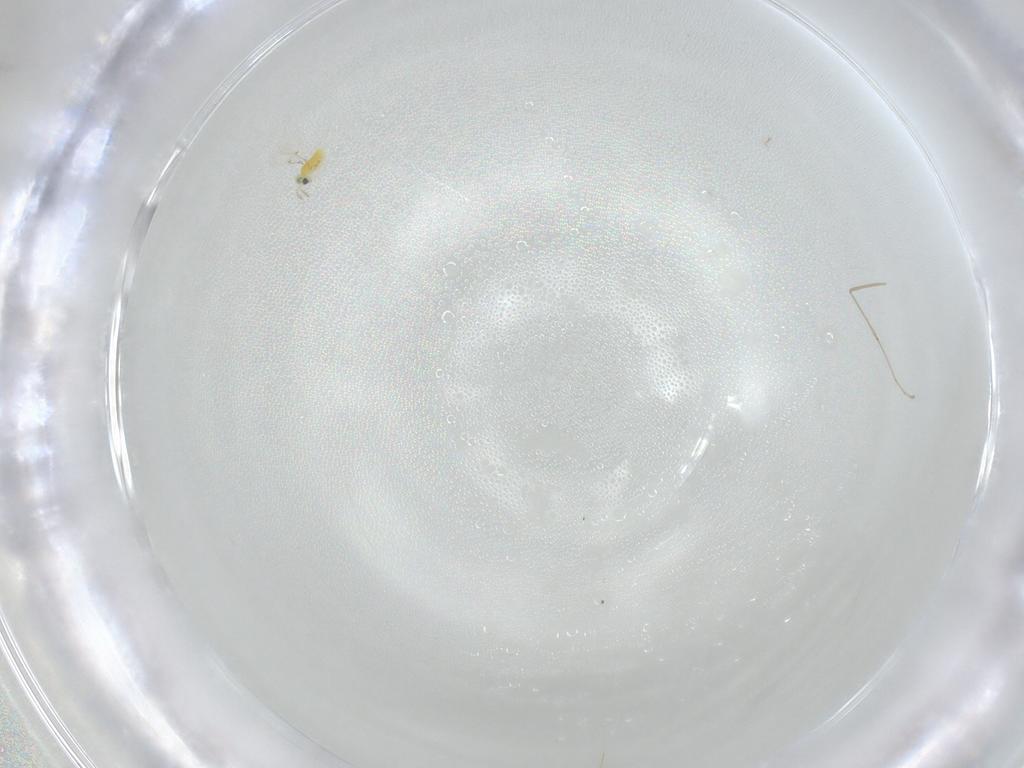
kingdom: Animalia
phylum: Arthropoda
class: Insecta
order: Hymenoptera
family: Trichogrammatidae
